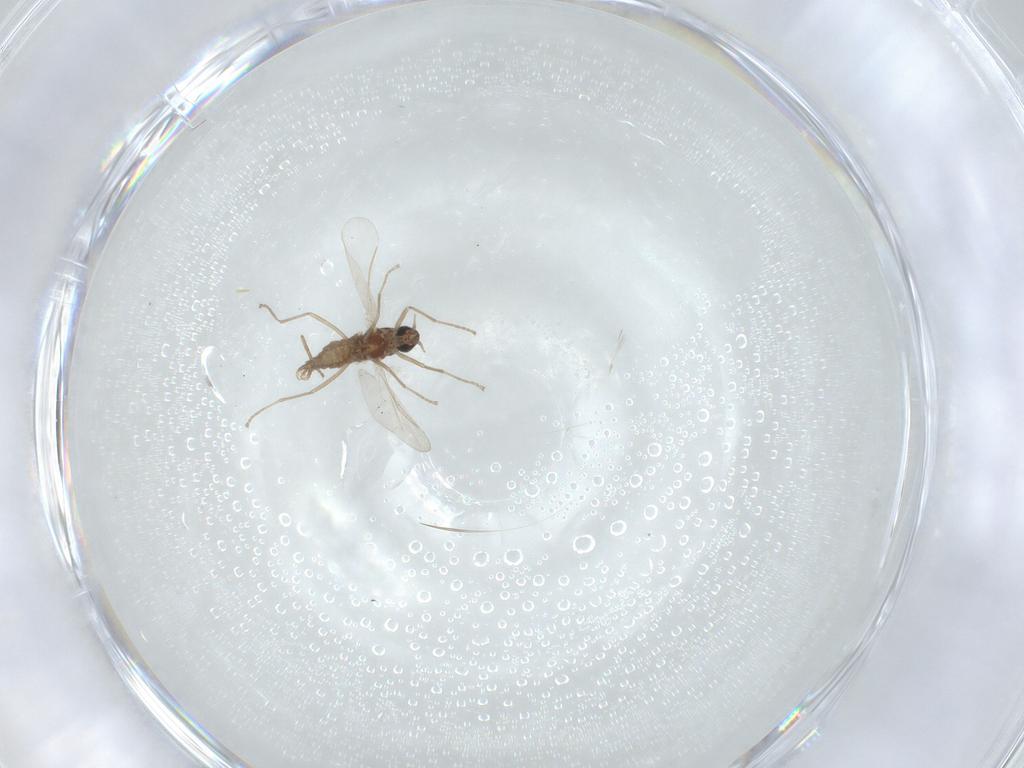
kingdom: Animalia
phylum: Arthropoda
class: Insecta
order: Diptera
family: Cecidomyiidae
